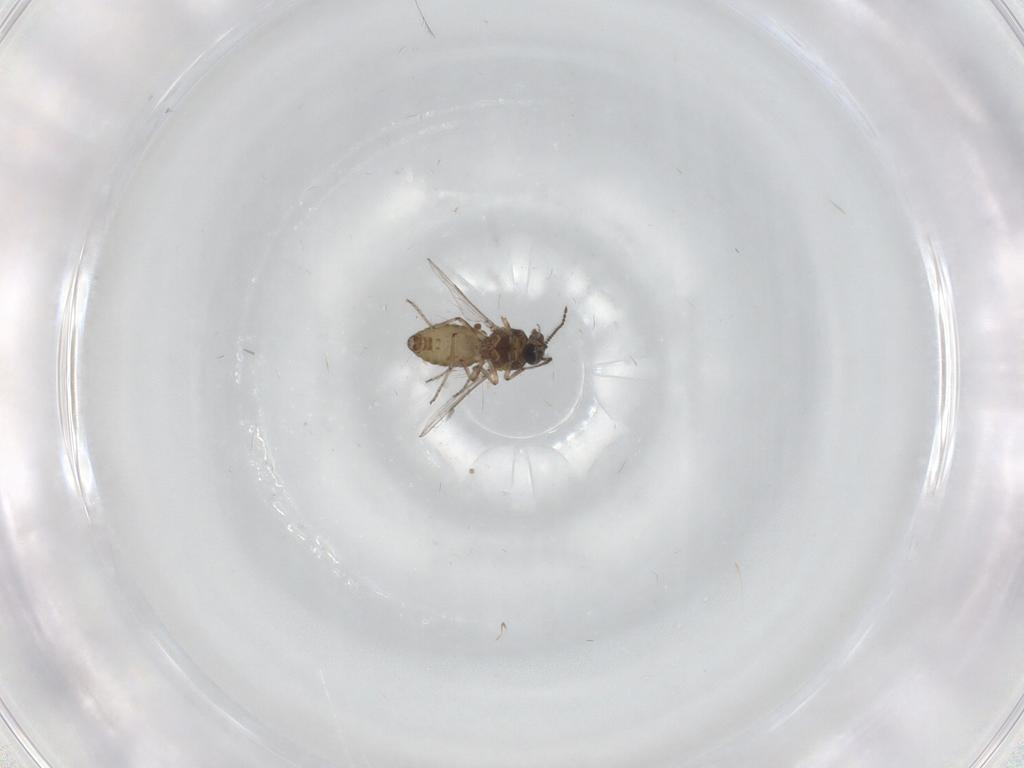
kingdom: Animalia
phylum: Arthropoda
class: Insecta
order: Diptera
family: Ceratopogonidae
